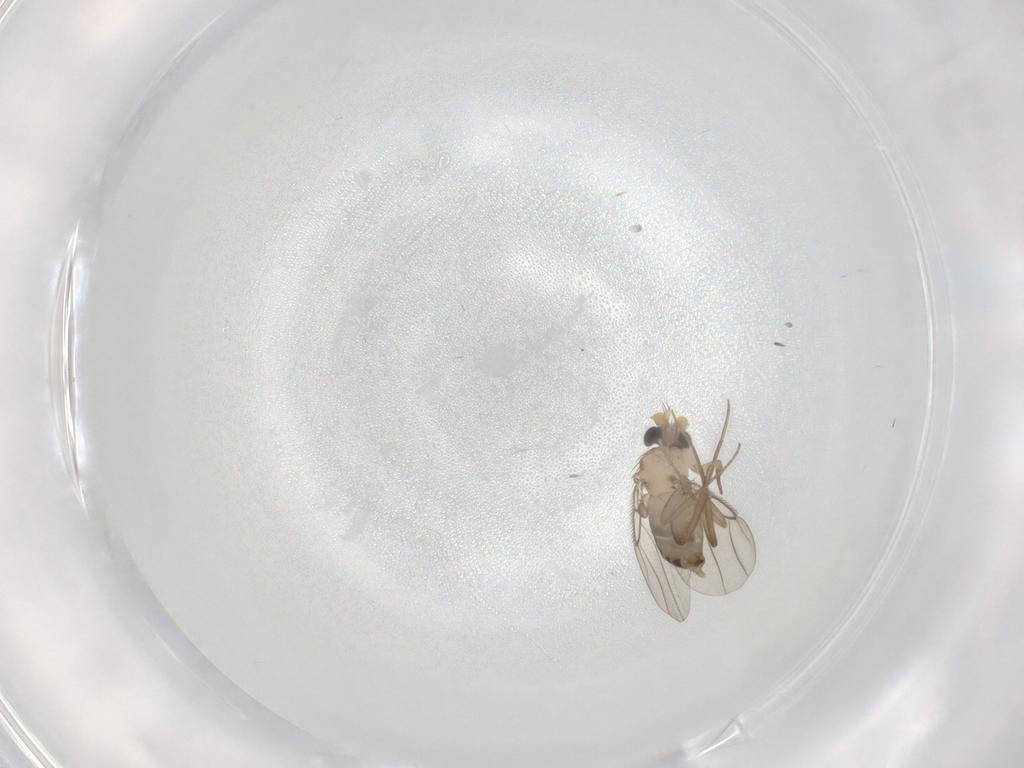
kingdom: Animalia
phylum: Arthropoda
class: Insecta
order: Diptera
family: Phoridae
